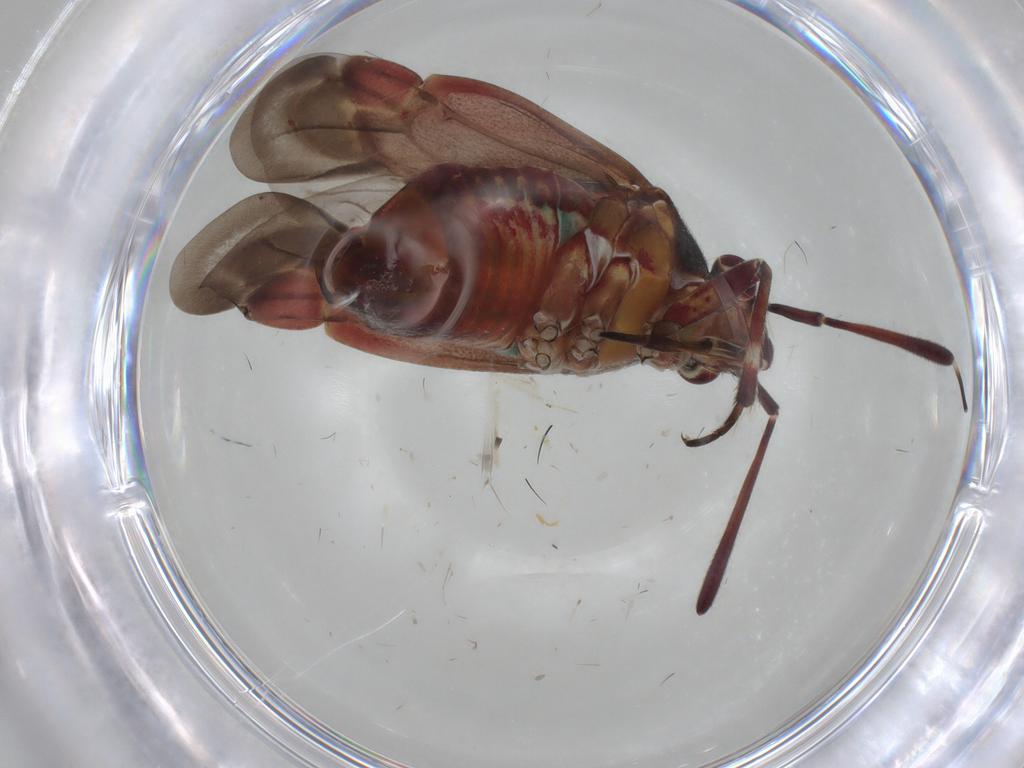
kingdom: Animalia
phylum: Arthropoda
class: Insecta
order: Hemiptera
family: Miridae
